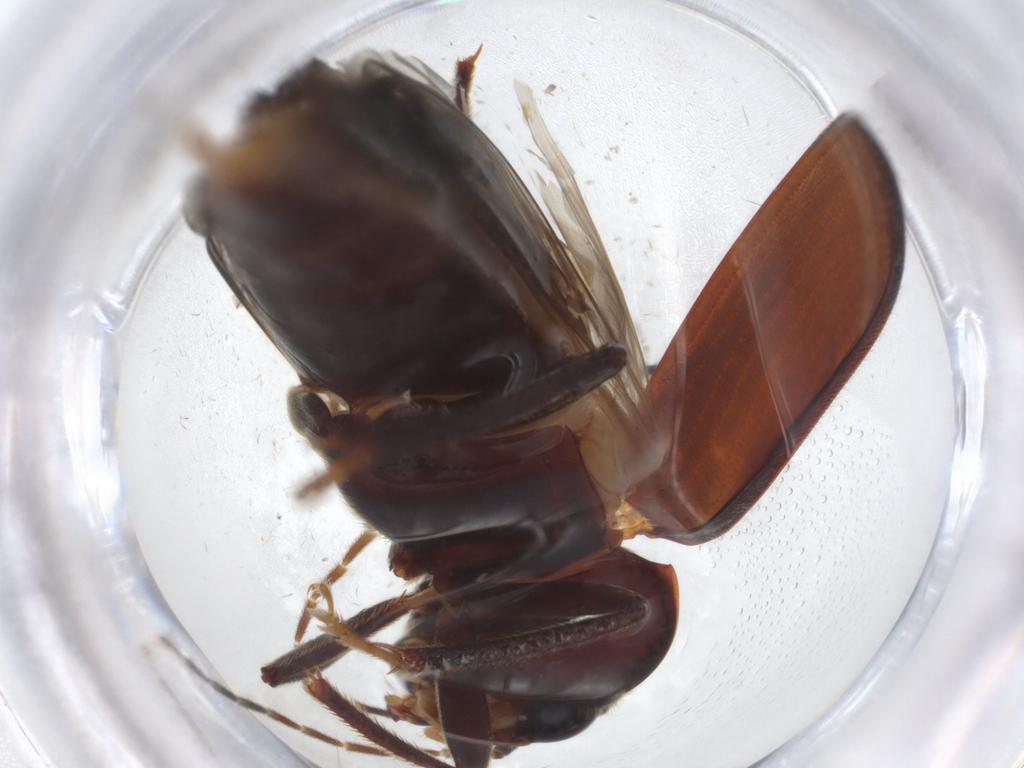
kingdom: Animalia
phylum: Arthropoda
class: Insecta
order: Coleoptera
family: Ptilodactylidae
